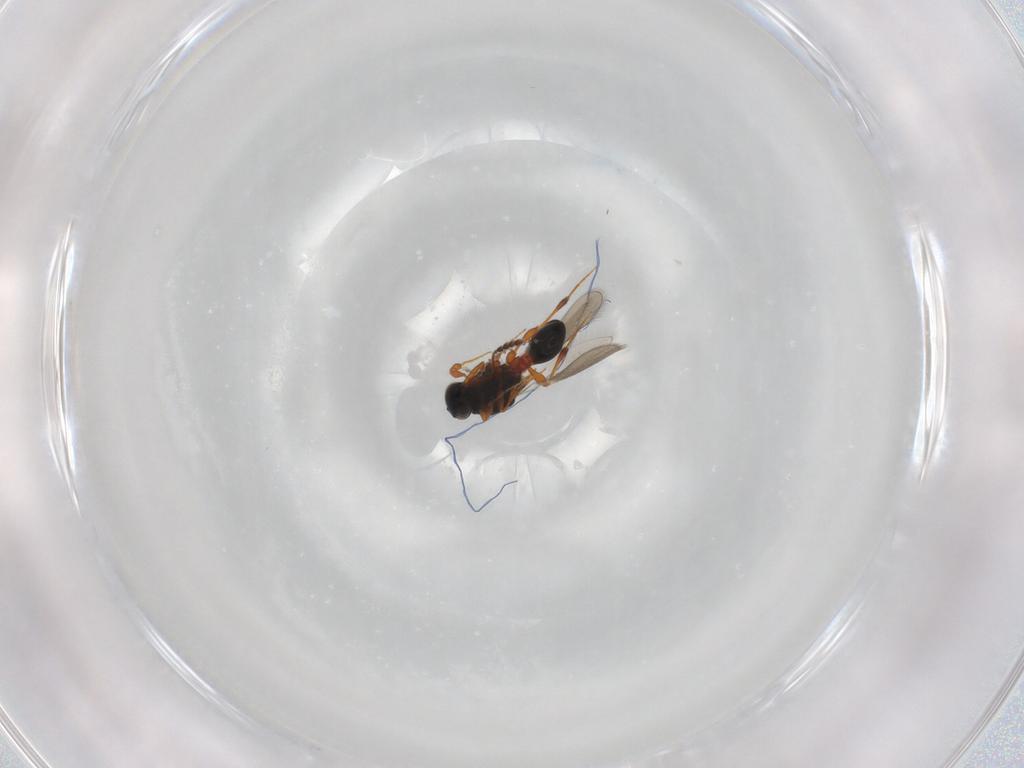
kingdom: Animalia
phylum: Arthropoda
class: Insecta
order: Hymenoptera
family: Platygastridae
